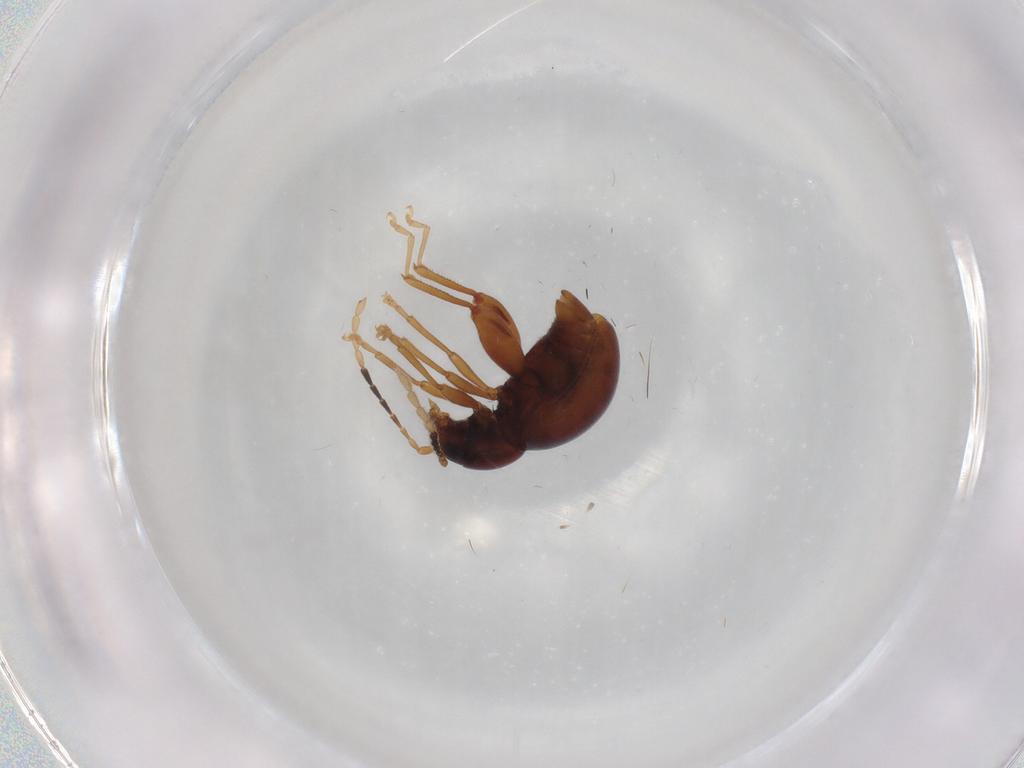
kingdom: Animalia
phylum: Arthropoda
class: Insecta
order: Coleoptera
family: Chrysomelidae
